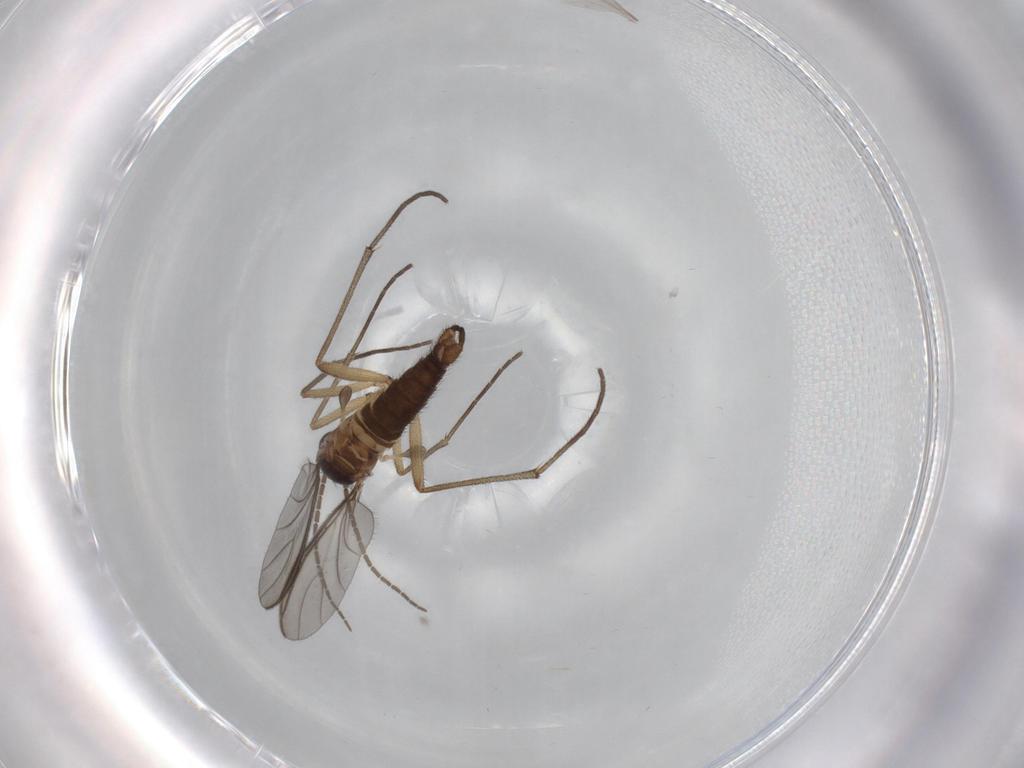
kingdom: Animalia
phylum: Arthropoda
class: Insecta
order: Diptera
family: Sciaridae
